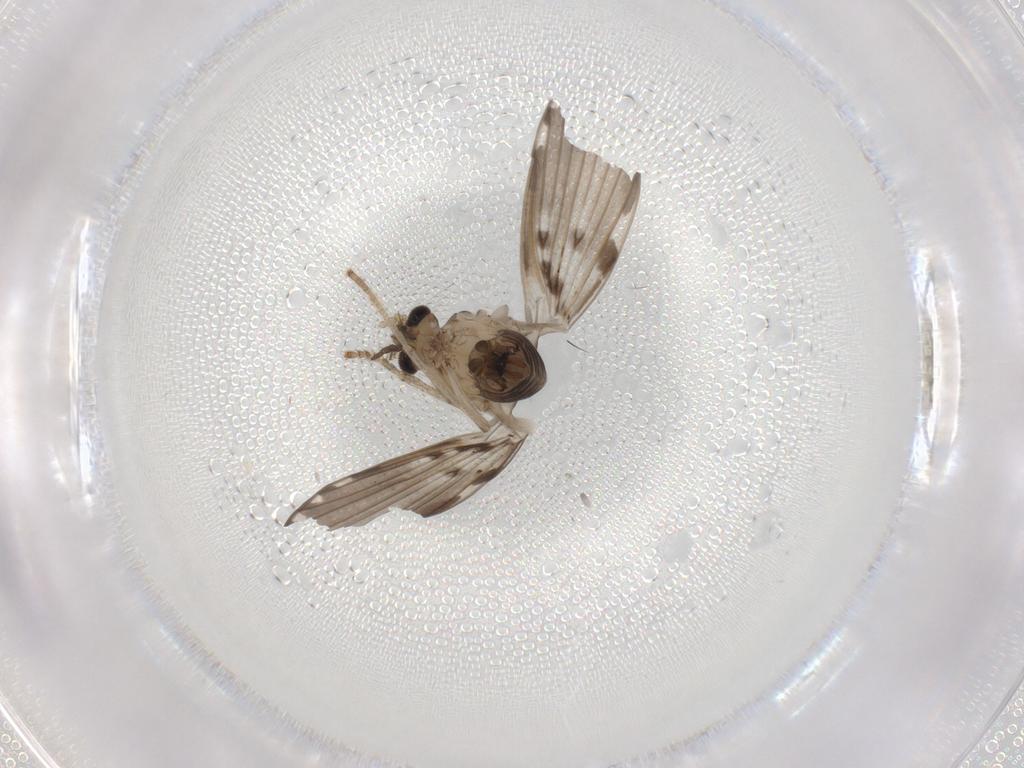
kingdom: Animalia
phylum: Arthropoda
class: Insecta
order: Diptera
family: Psychodidae
